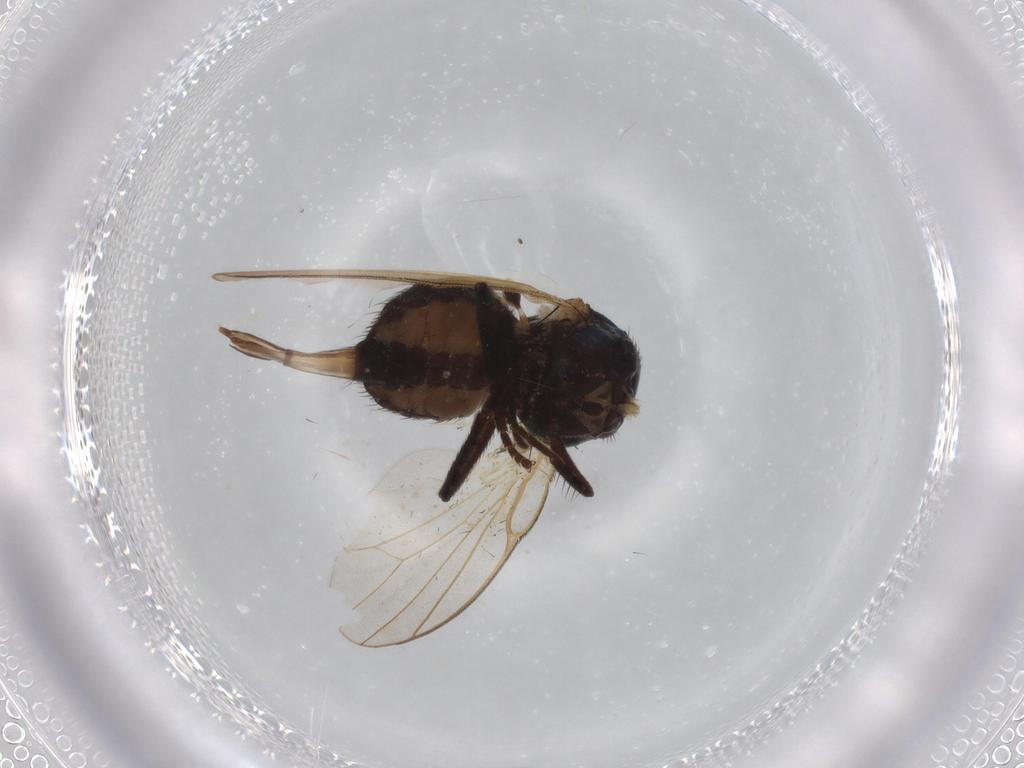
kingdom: Animalia
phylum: Arthropoda
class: Insecta
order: Diptera
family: Lonchaeidae
